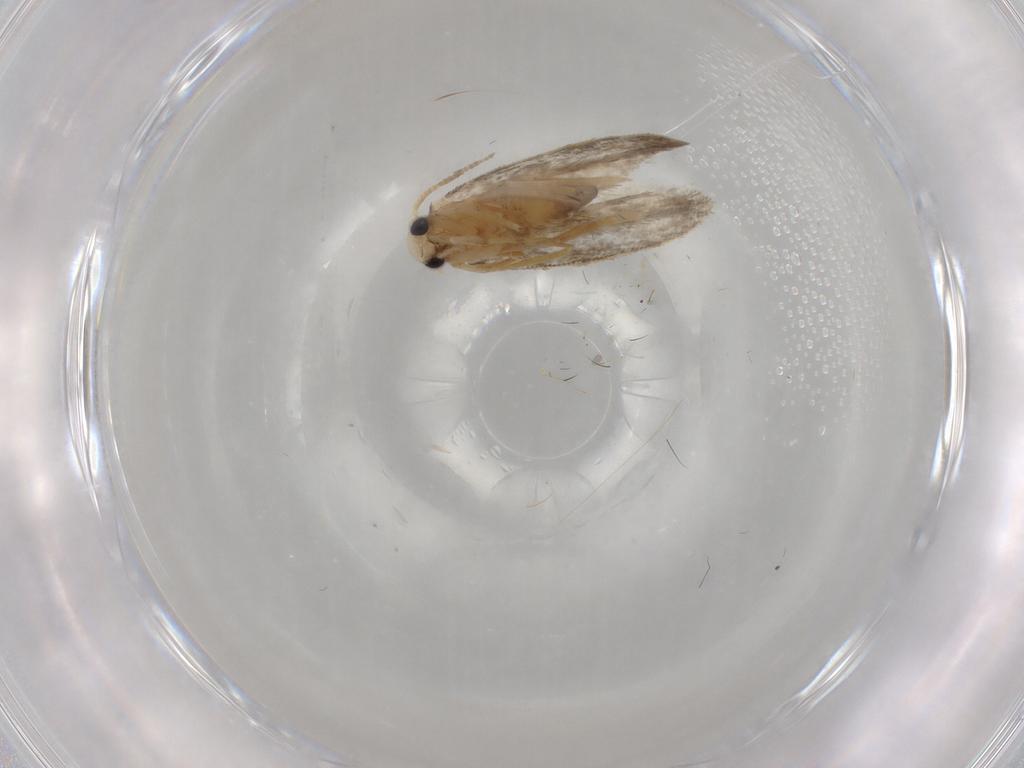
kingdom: Animalia
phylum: Arthropoda
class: Insecta
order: Lepidoptera
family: Psychidae
